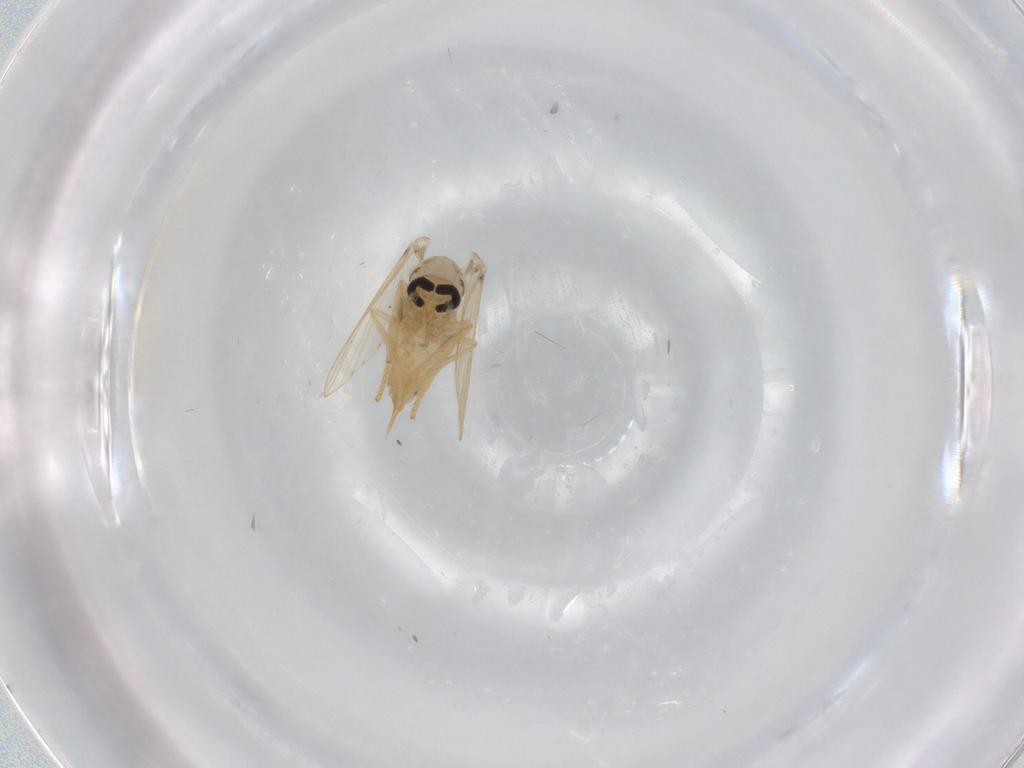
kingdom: Animalia
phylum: Arthropoda
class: Insecta
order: Diptera
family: Psychodidae
